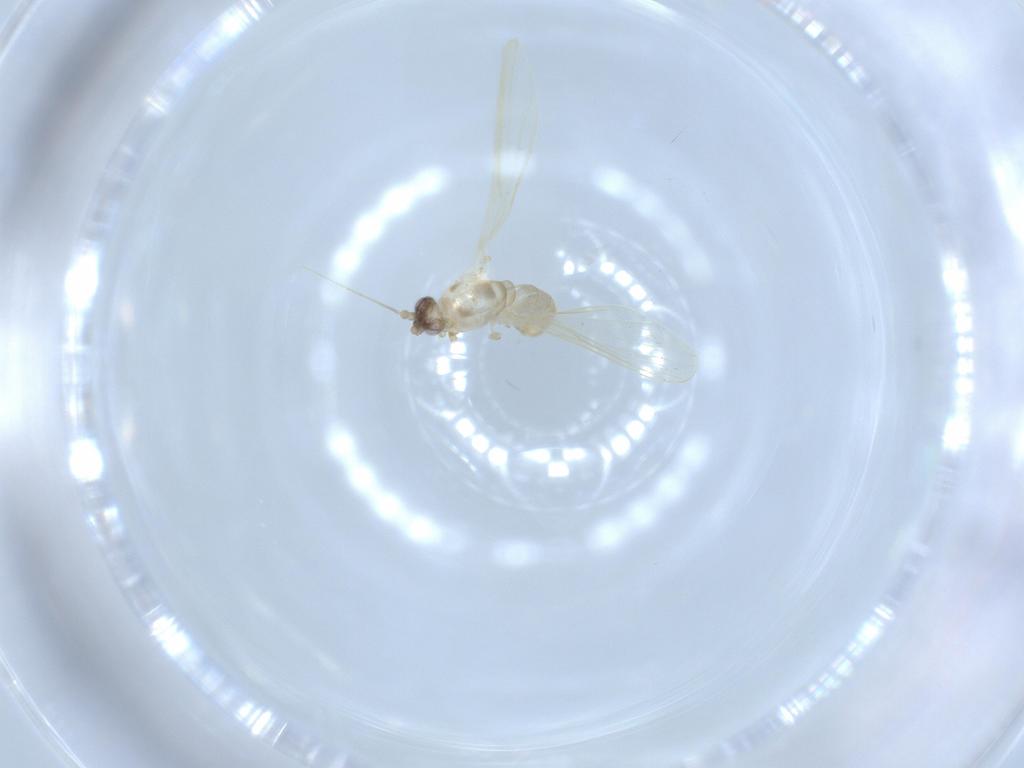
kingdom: Animalia
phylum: Arthropoda
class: Insecta
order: Diptera
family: Psychodidae
